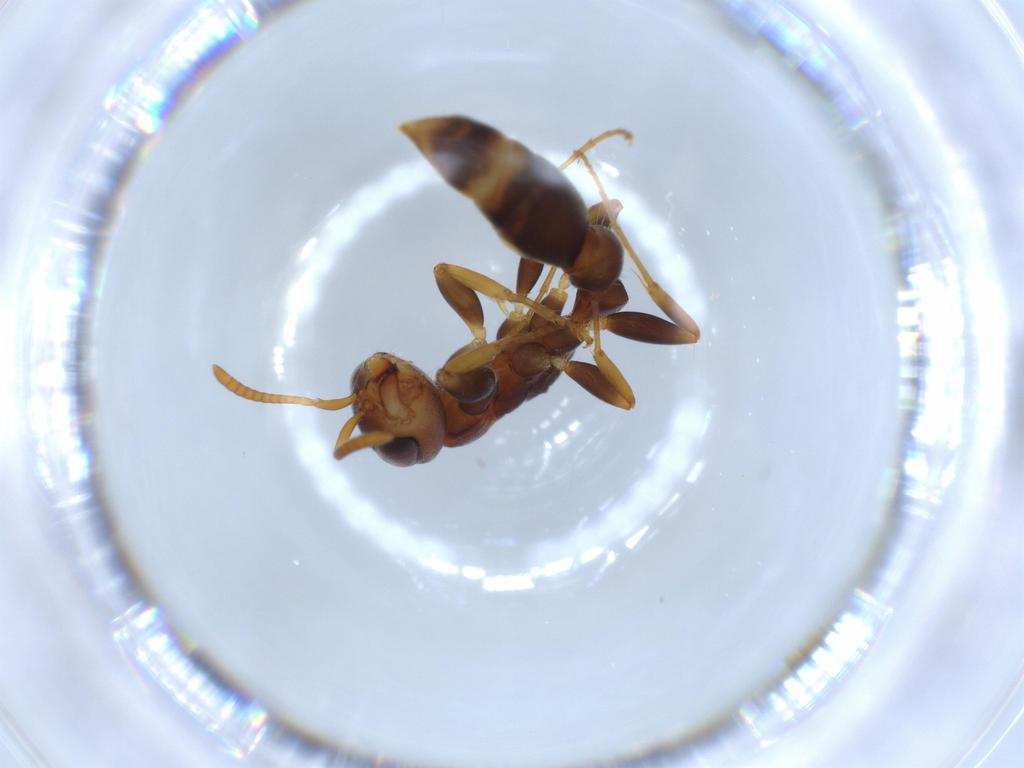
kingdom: Animalia
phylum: Arthropoda
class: Insecta
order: Hymenoptera
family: Formicidae
